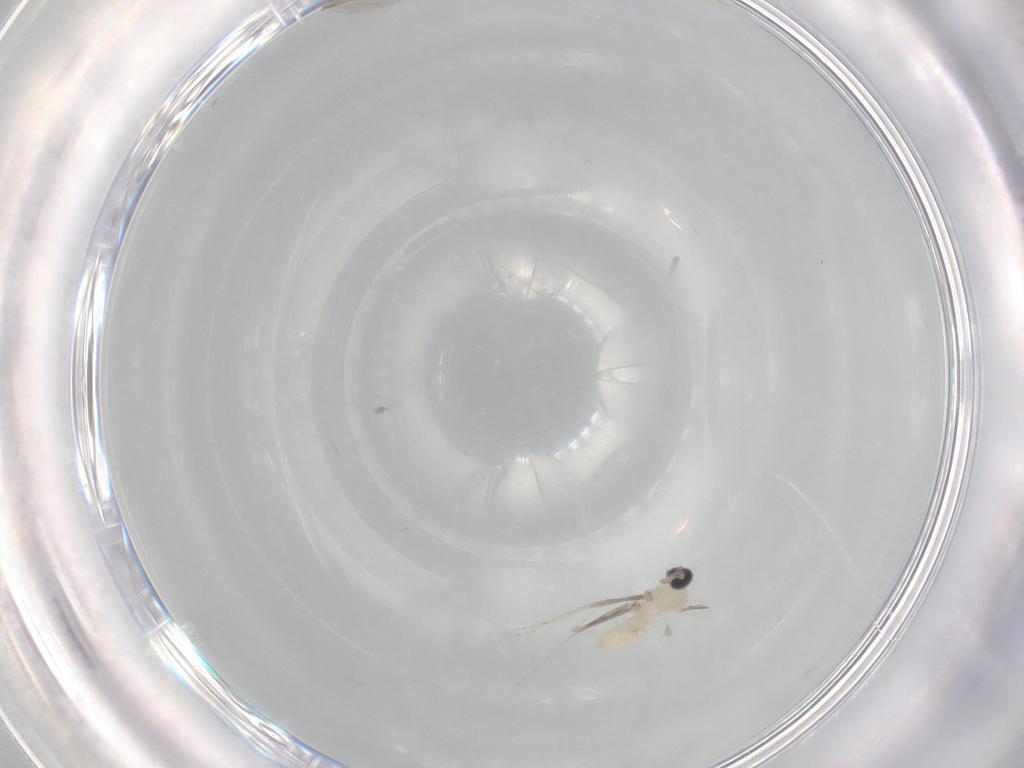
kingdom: Animalia
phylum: Arthropoda
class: Insecta
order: Diptera
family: Cecidomyiidae
